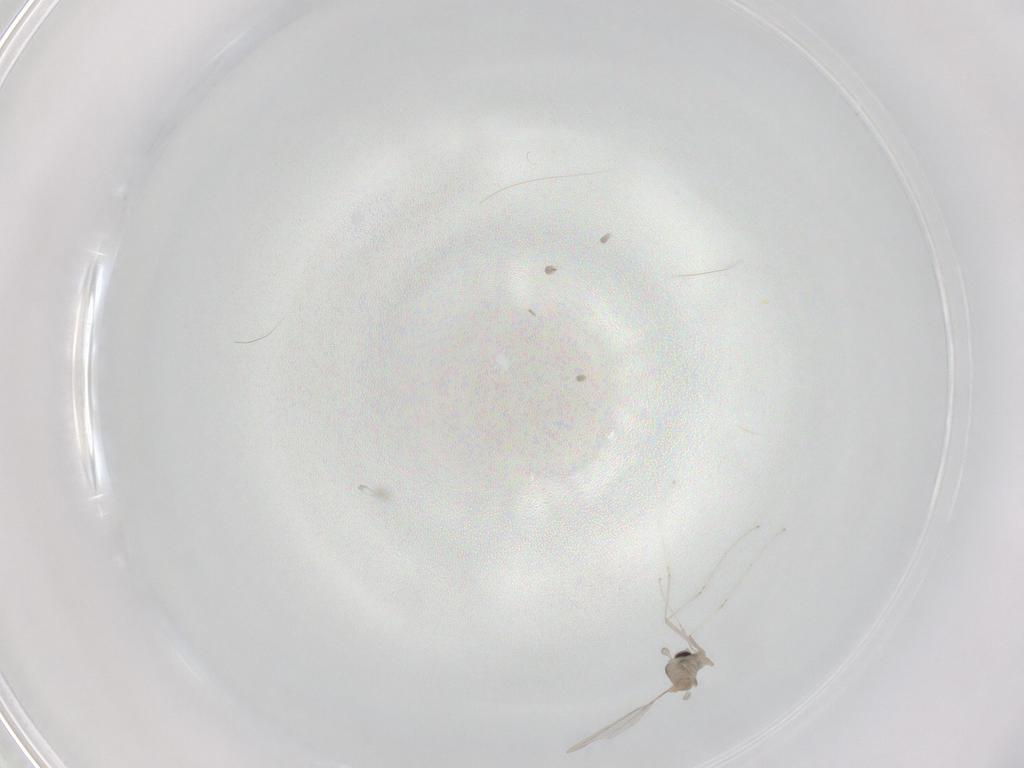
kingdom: Animalia
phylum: Arthropoda
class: Insecta
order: Diptera
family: Cecidomyiidae
